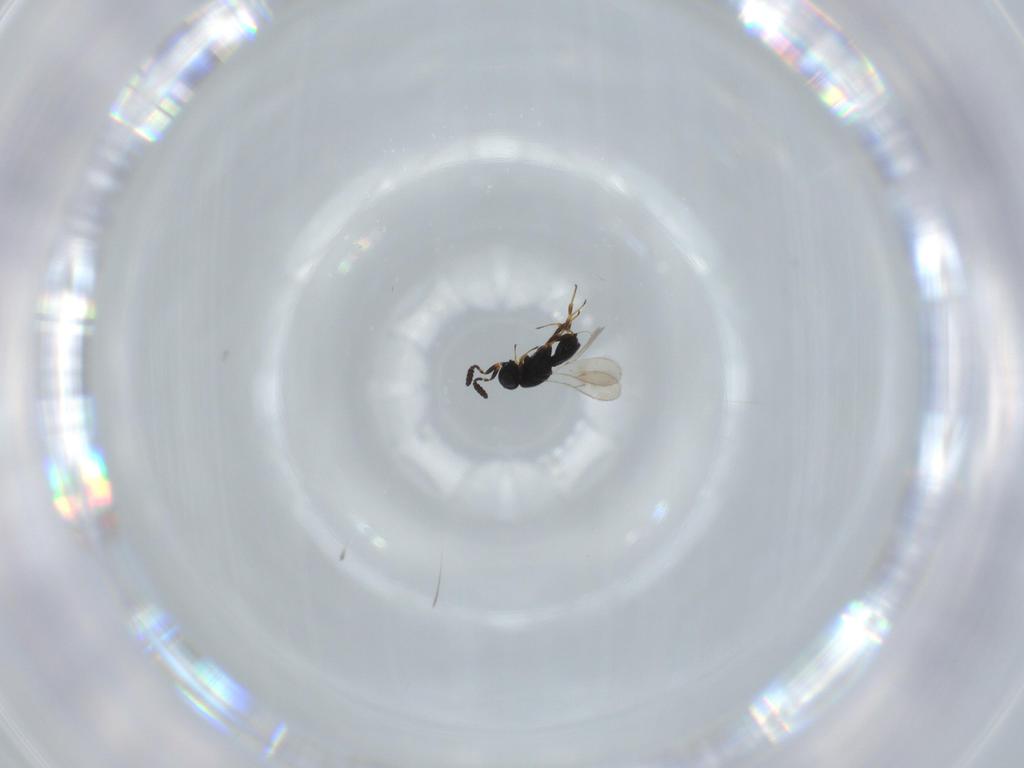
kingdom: Animalia
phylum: Arthropoda
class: Insecta
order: Hymenoptera
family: Scelionidae
